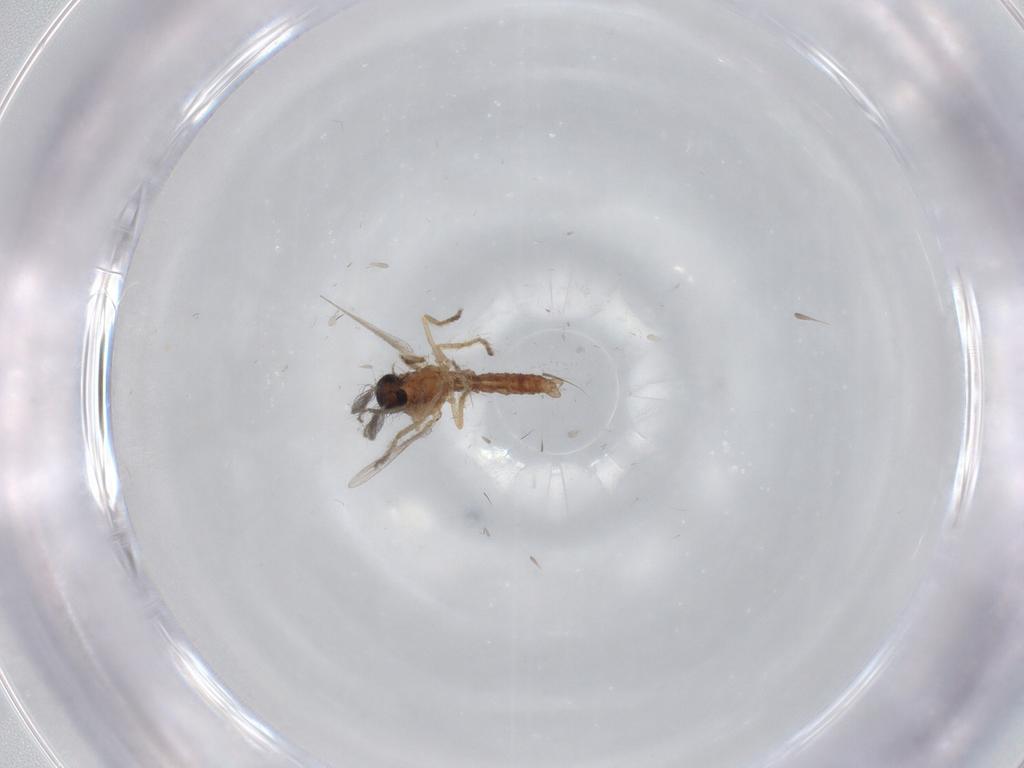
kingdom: Animalia
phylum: Arthropoda
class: Insecta
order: Diptera
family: Ceratopogonidae
